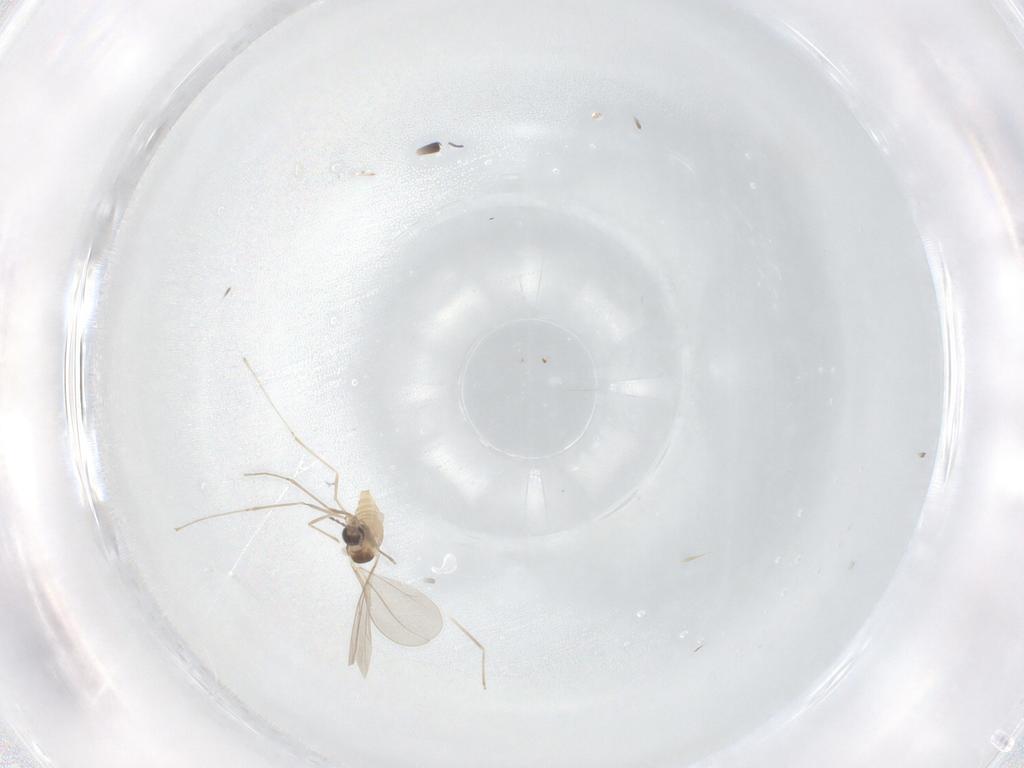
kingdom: Animalia
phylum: Arthropoda
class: Insecta
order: Diptera
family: Cecidomyiidae
